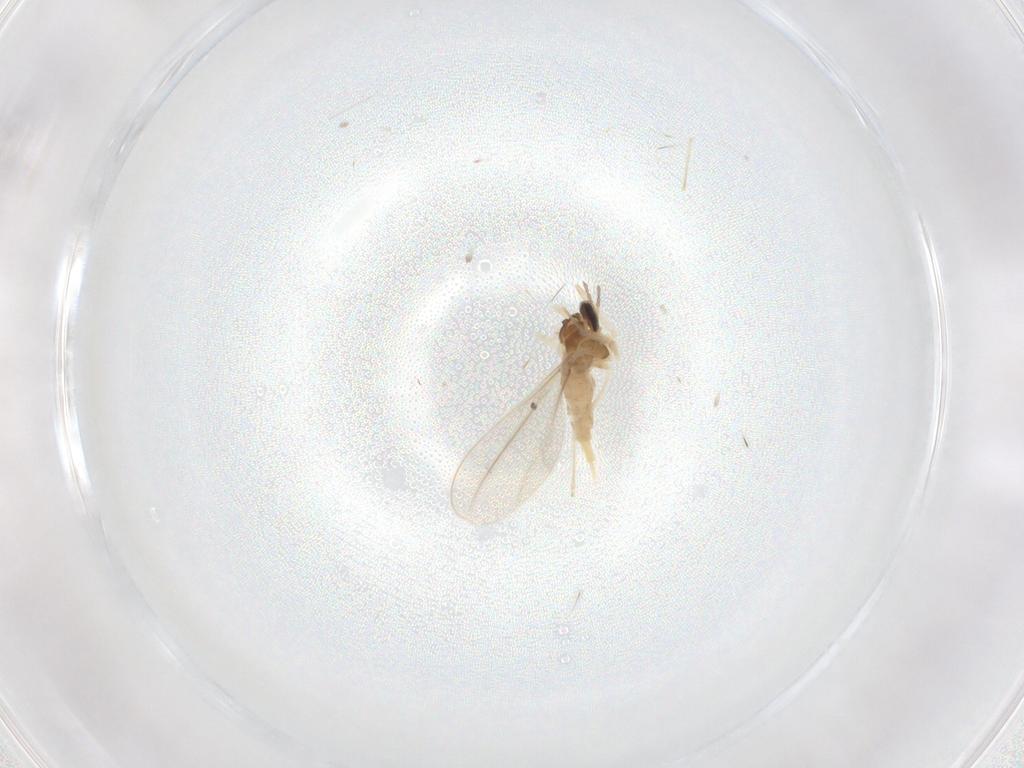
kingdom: Animalia
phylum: Arthropoda
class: Insecta
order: Diptera
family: Cecidomyiidae
